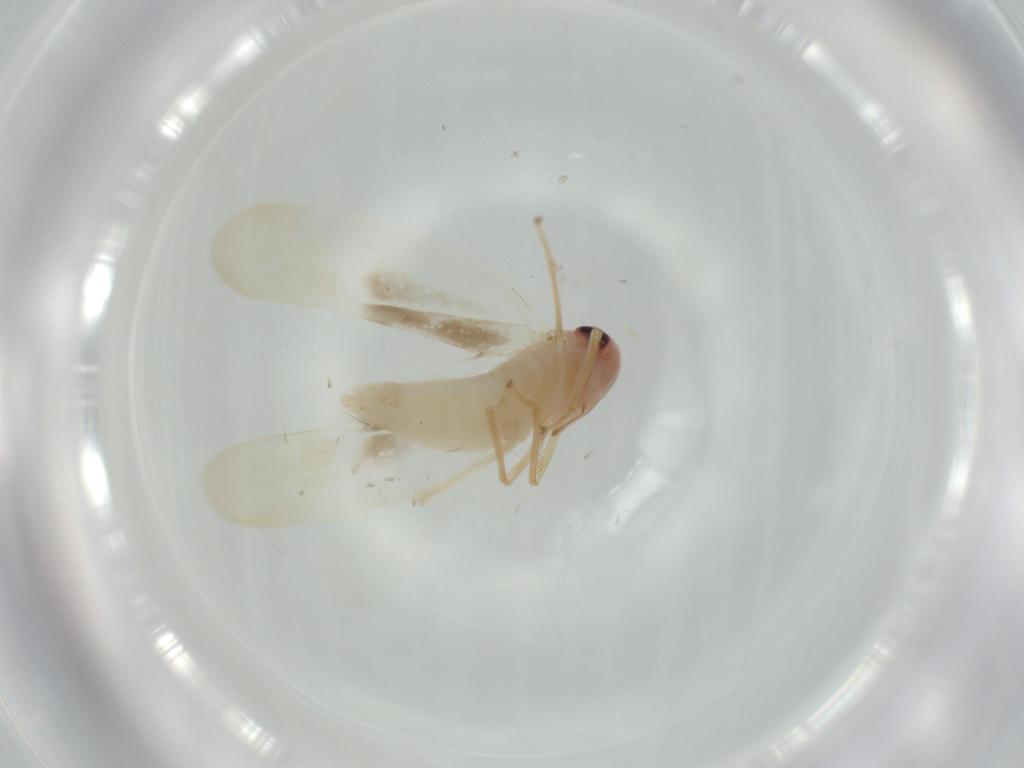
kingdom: Animalia
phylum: Arthropoda
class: Insecta
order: Hemiptera
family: Cicadellidae
